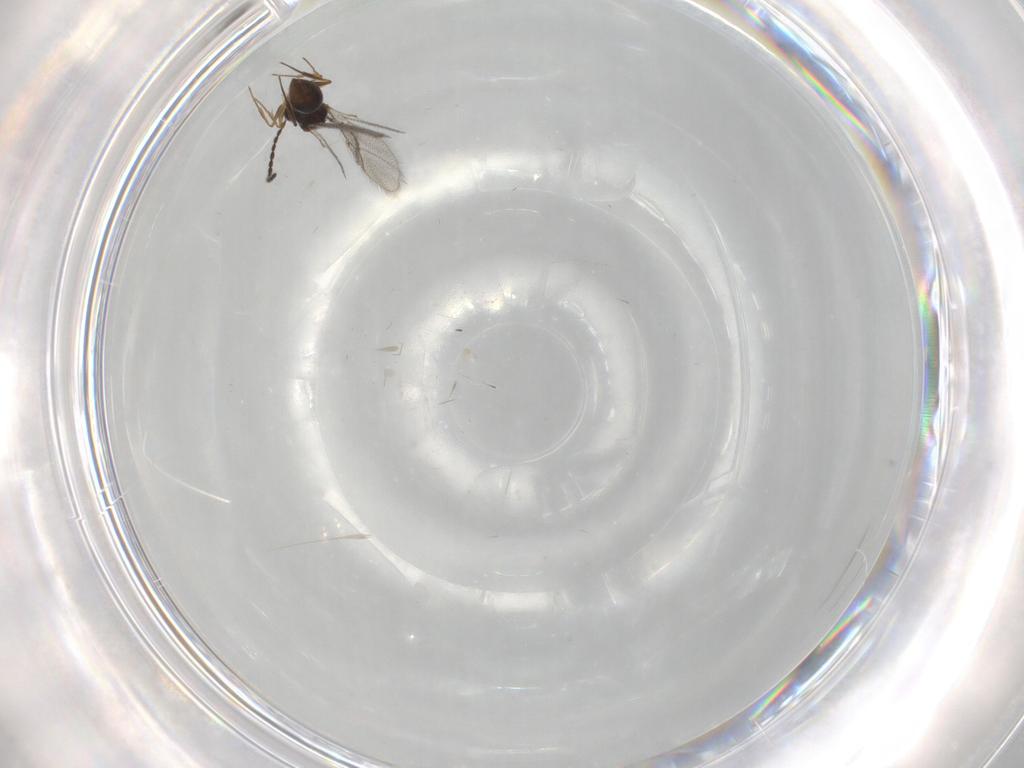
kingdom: Animalia
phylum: Arthropoda
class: Insecta
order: Hymenoptera
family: Figitidae
